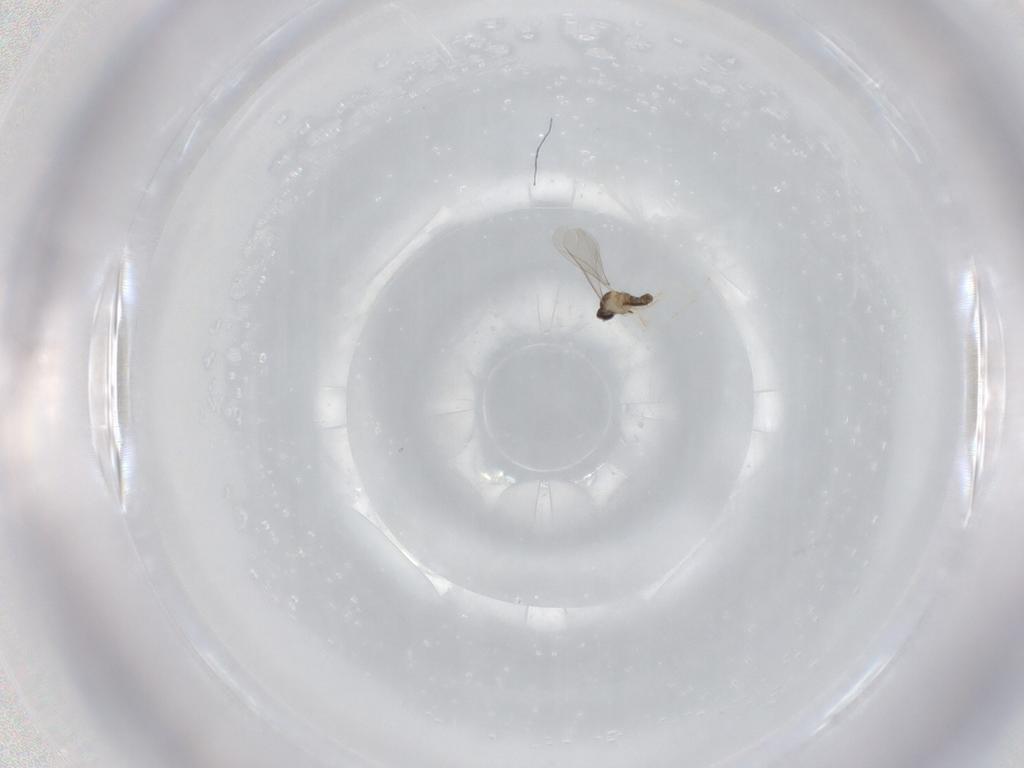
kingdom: Animalia
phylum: Arthropoda
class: Insecta
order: Diptera
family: Cecidomyiidae
